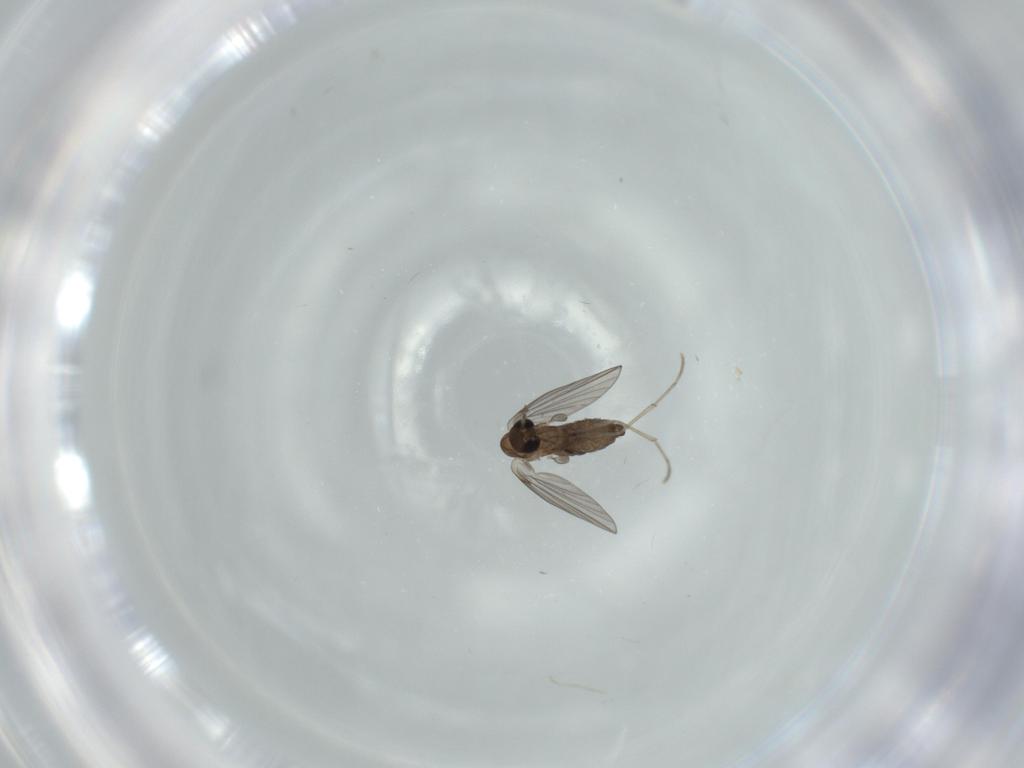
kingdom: Animalia
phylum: Arthropoda
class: Insecta
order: Diptera
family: Psychodidae
